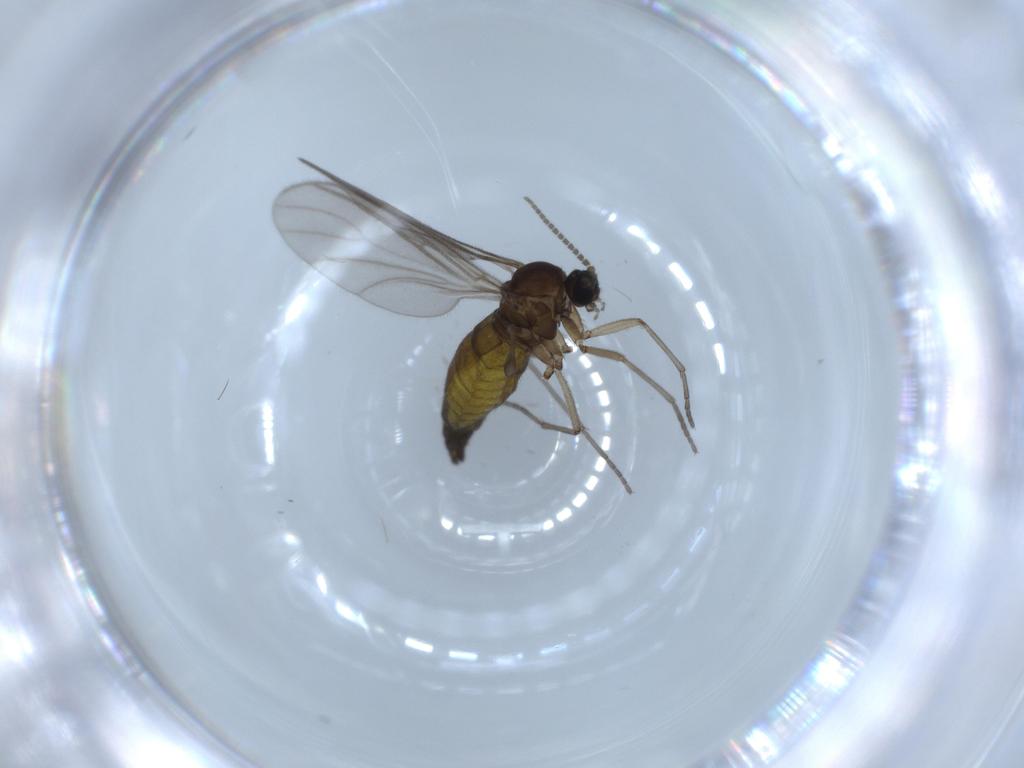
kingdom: Animalia
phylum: Arthropoda
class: Insecta
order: Diptera
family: Sciaridae
